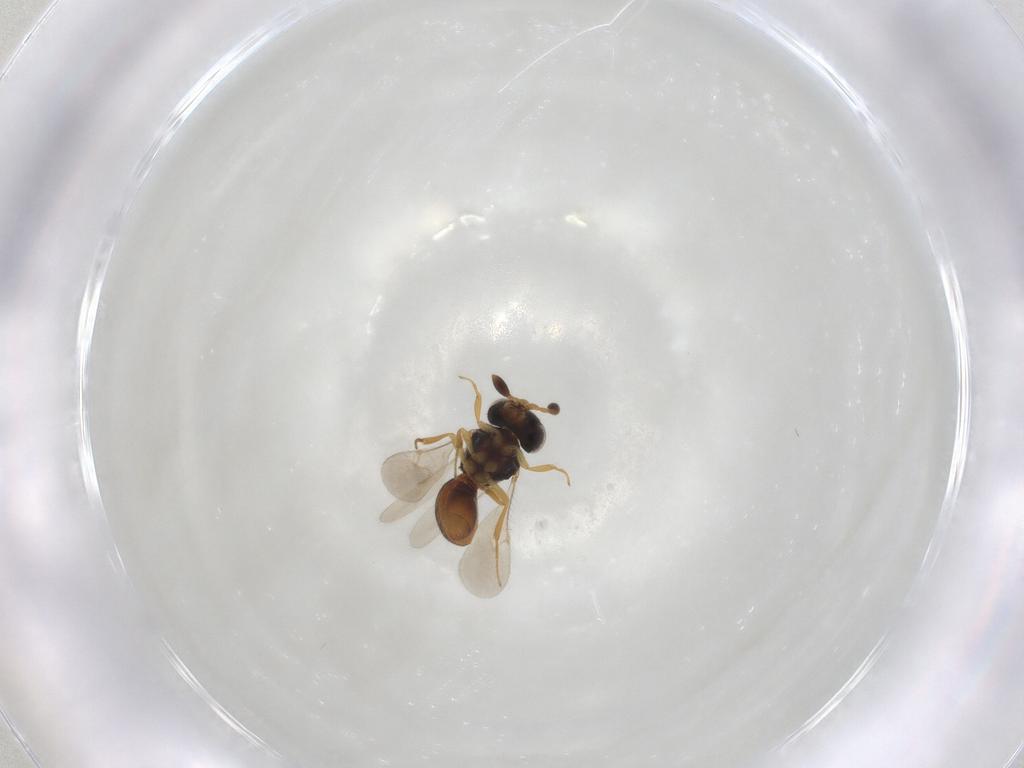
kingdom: Animalia
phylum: Arthropoda
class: Insecta
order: Hymenoptera
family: Scelionidae
